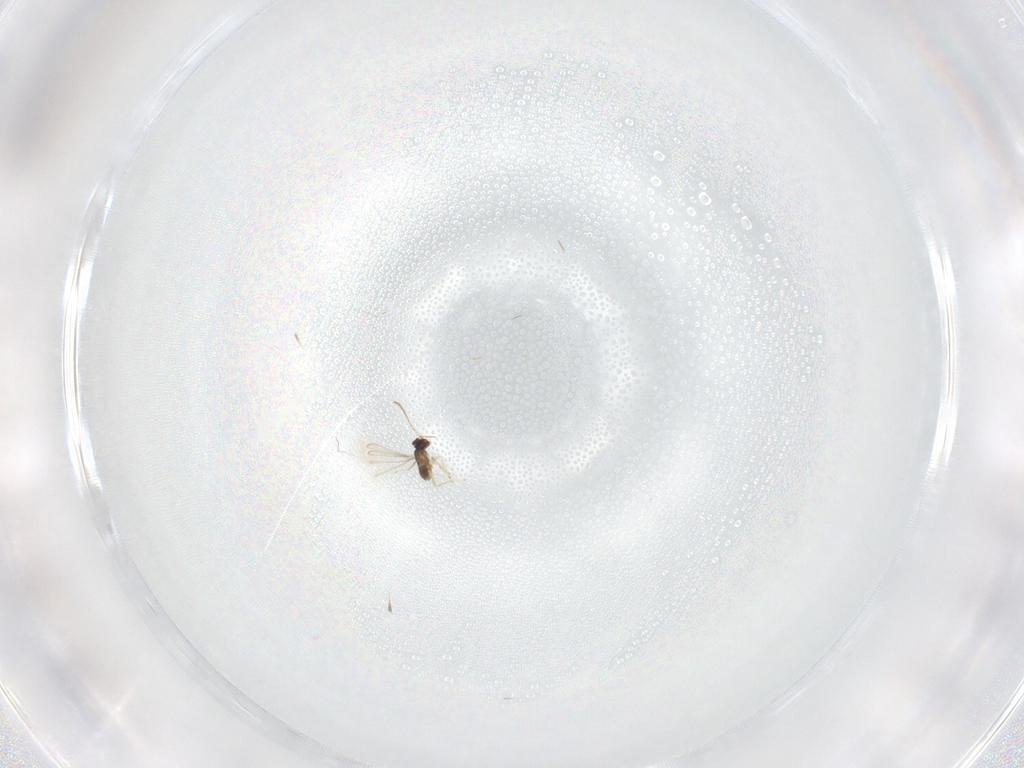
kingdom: Animalia
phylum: Arthropoda
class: Insecta
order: Hymenoptera
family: Mymaridae
